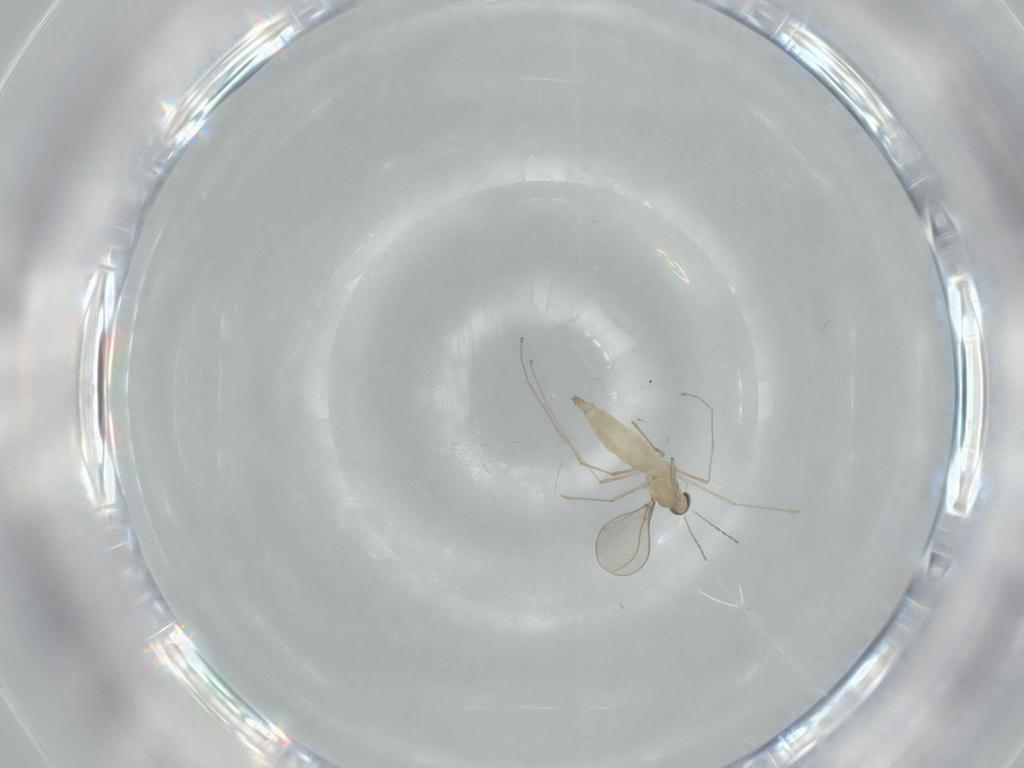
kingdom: Animalia
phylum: Arthropoda
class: Insecta
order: Diptera
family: Cecidomyiidae
